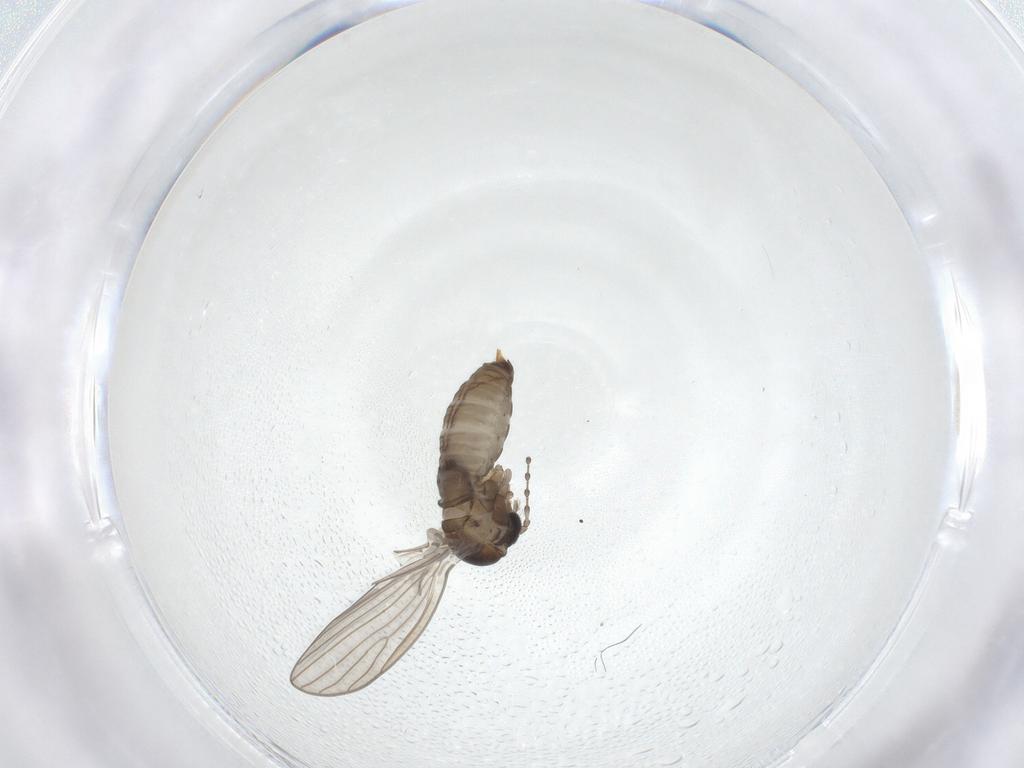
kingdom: Animalia
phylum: Arthropoda
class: Insecta
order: Diptera
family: Psychodidae
